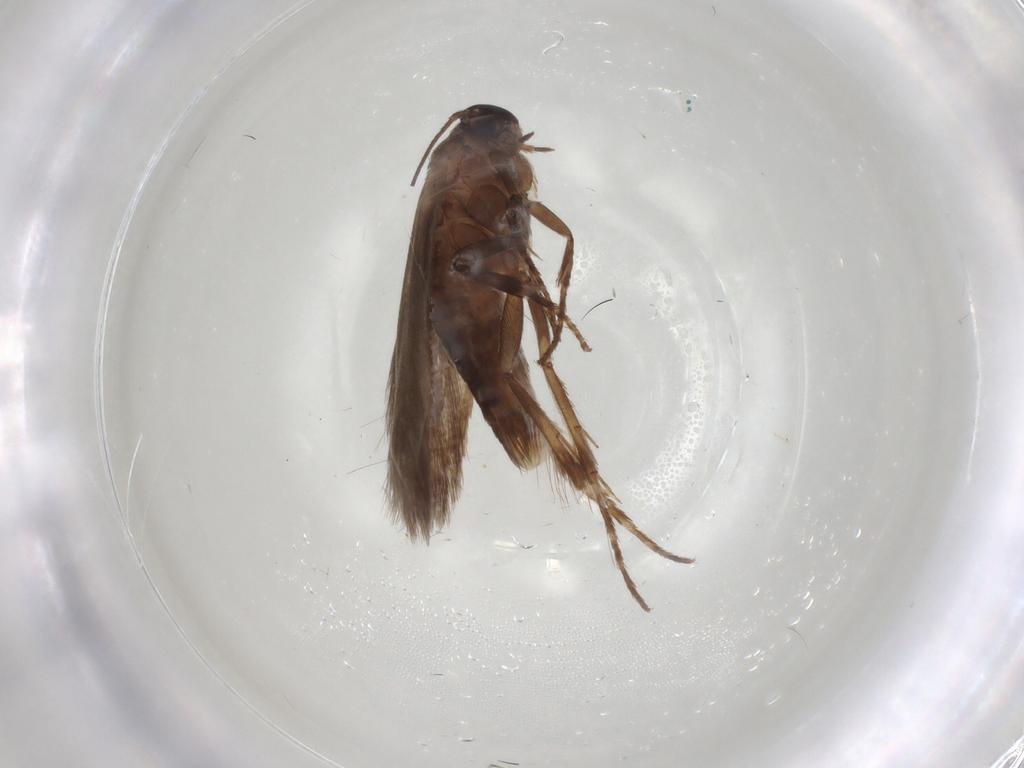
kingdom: Animalia
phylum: Arthropoda
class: Insecta
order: Lepidoptera
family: Scythrididae
